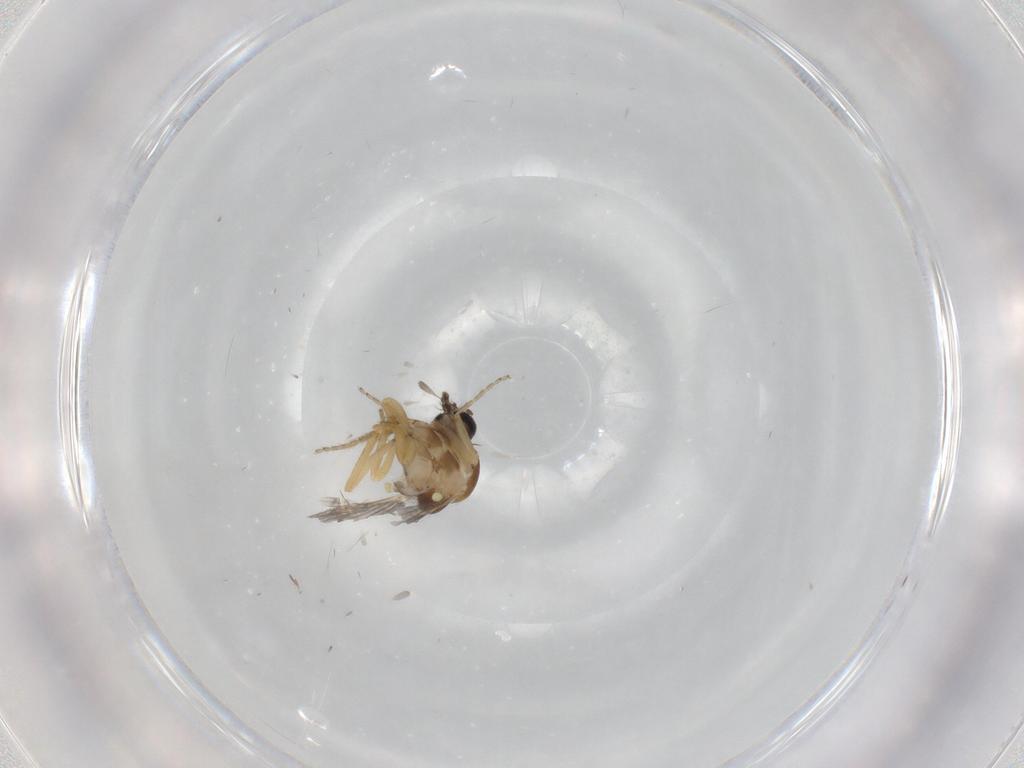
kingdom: Animalia
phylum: Arthropoda
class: Insecta
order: Diptera
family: Ceratopogonidae
